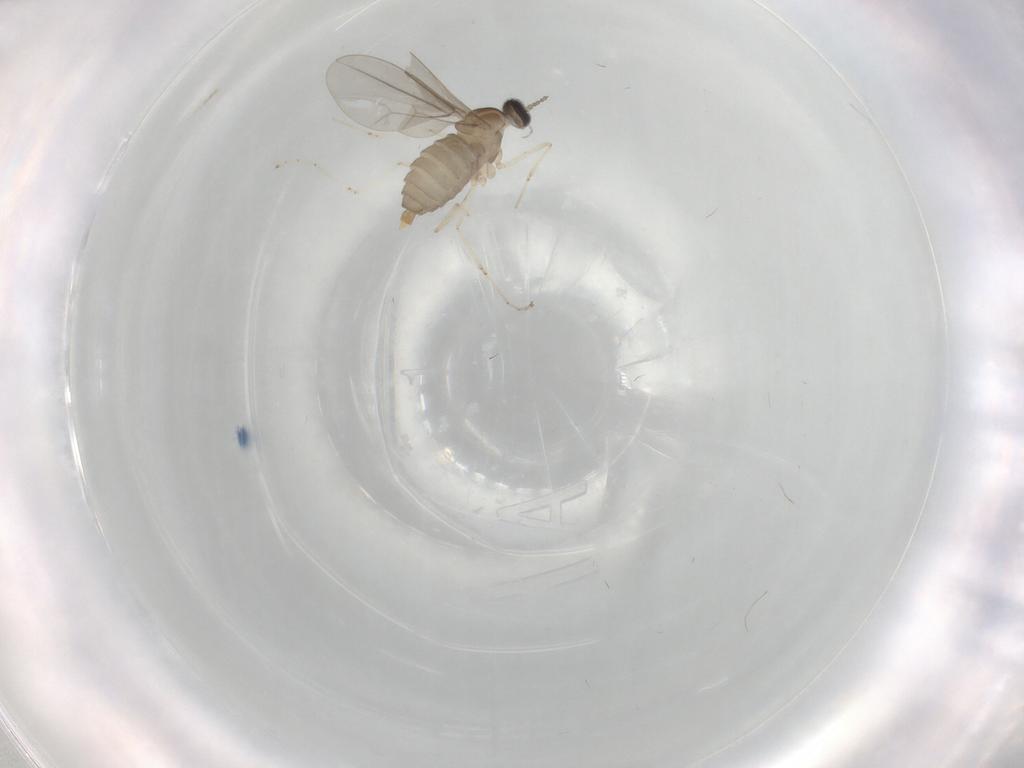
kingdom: Animalia
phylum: Arthropoda
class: Insecta
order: Diptera
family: Cecidomyiidae
